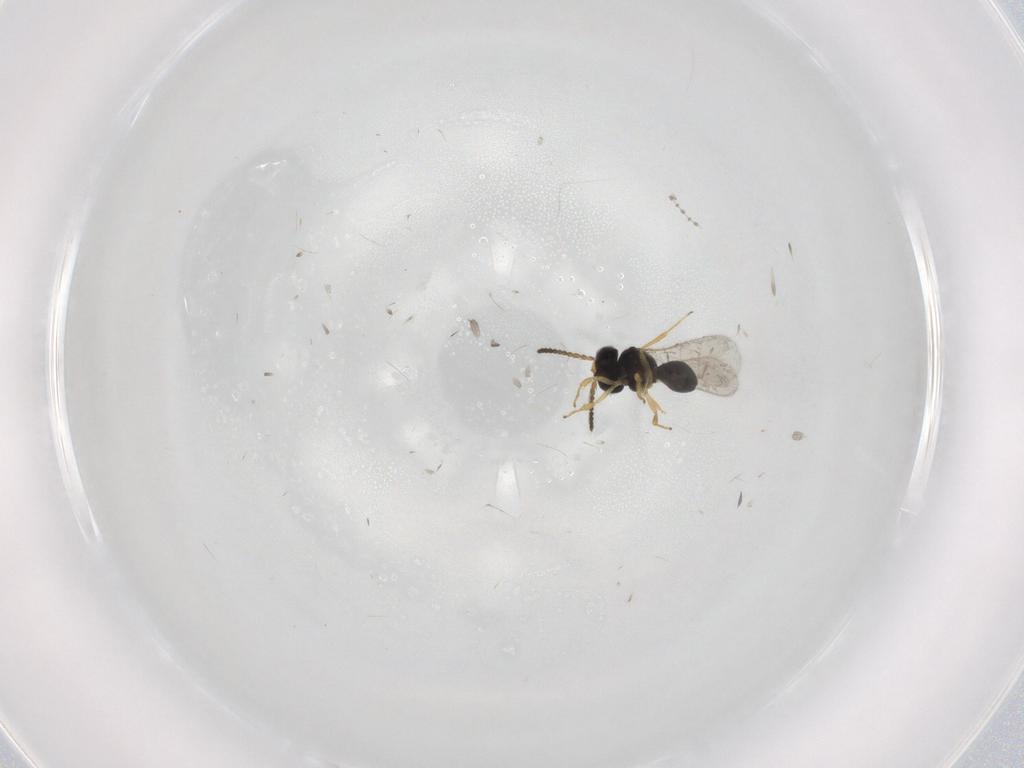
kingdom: Animalia
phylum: Arthropoda
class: Insecta
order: Hymenoptera
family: Scelionidae
